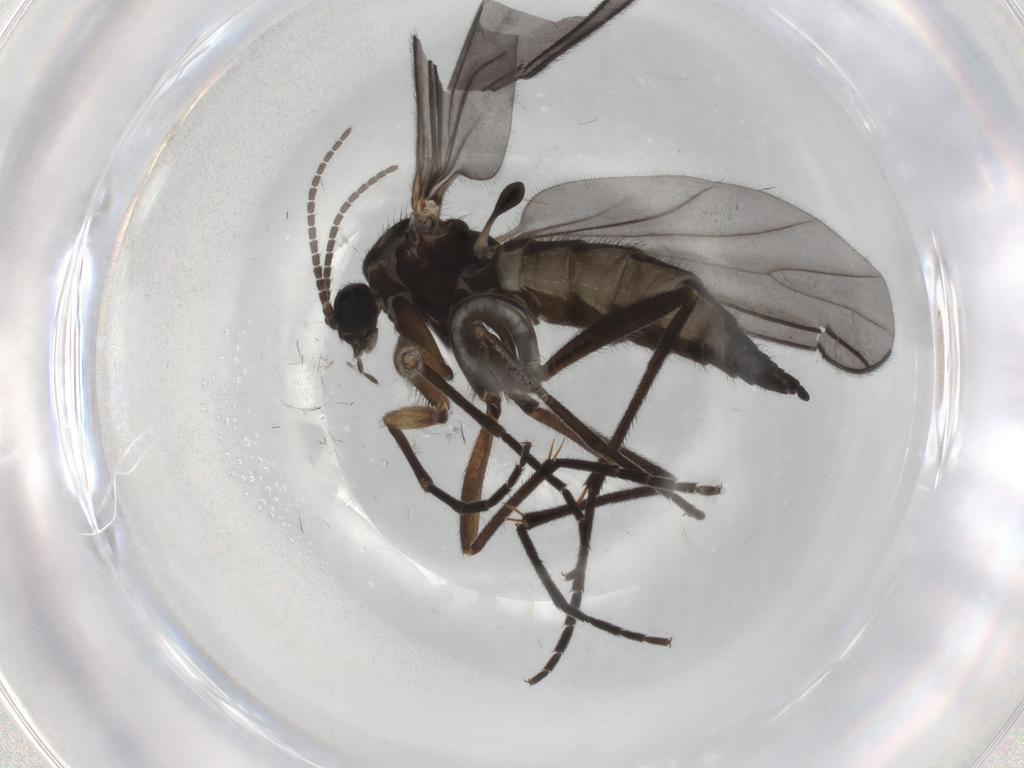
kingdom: Animalia
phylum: Arthropoda
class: Insecta
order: Diptera
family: Sciaridae
